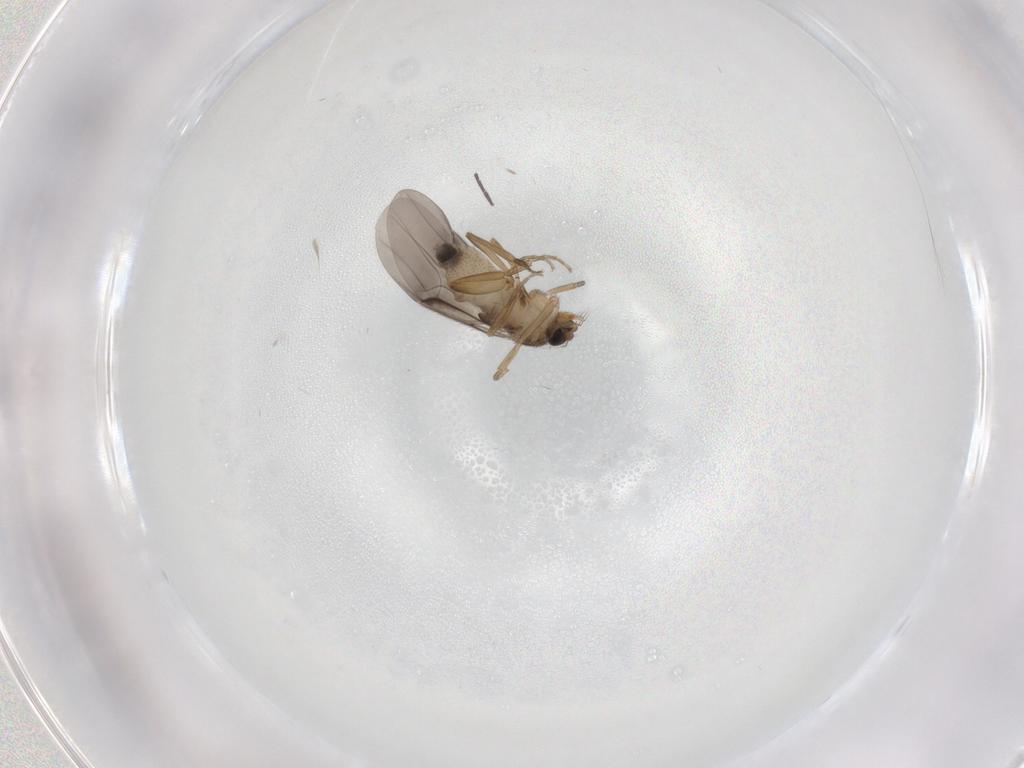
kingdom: Animalia
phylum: Arthropoda
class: Insecta
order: Diptera
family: Phoridae
